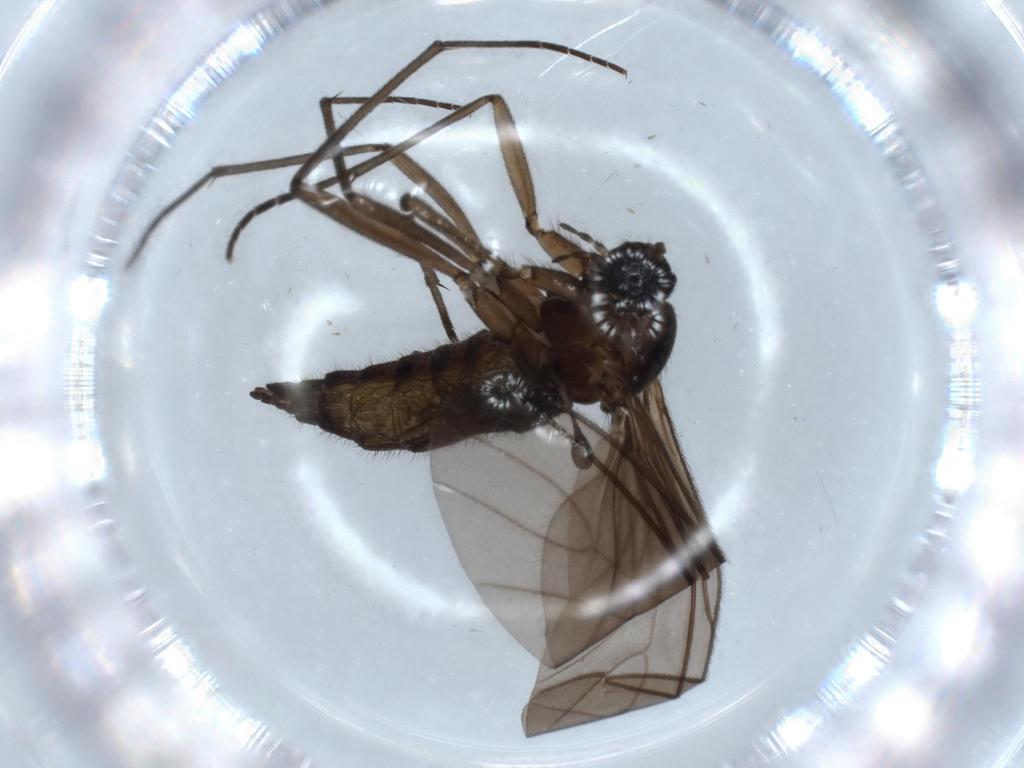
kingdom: Animalia
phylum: Arthropoda
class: Insecta
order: Diptera
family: Sciaridae
